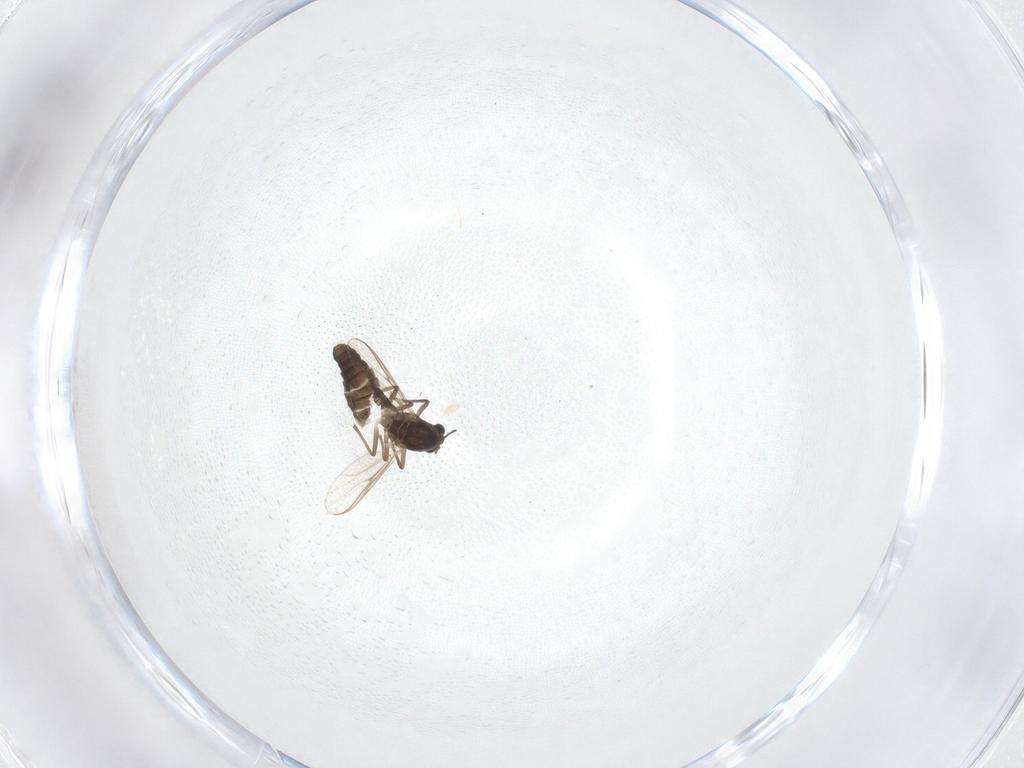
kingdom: Animalia
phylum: Arthropoda
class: Insecta
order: Diptera
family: Chironomidae
